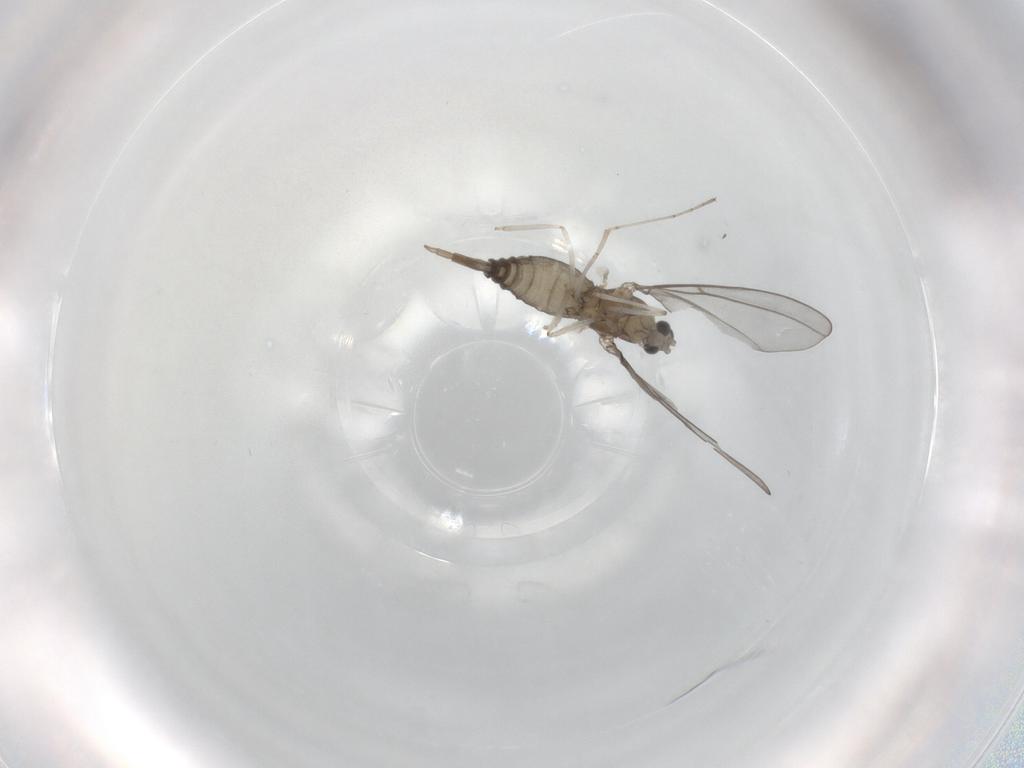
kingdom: Animalia
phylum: Arthropoda
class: Insecta
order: Diptera
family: Cecidomyiidae
